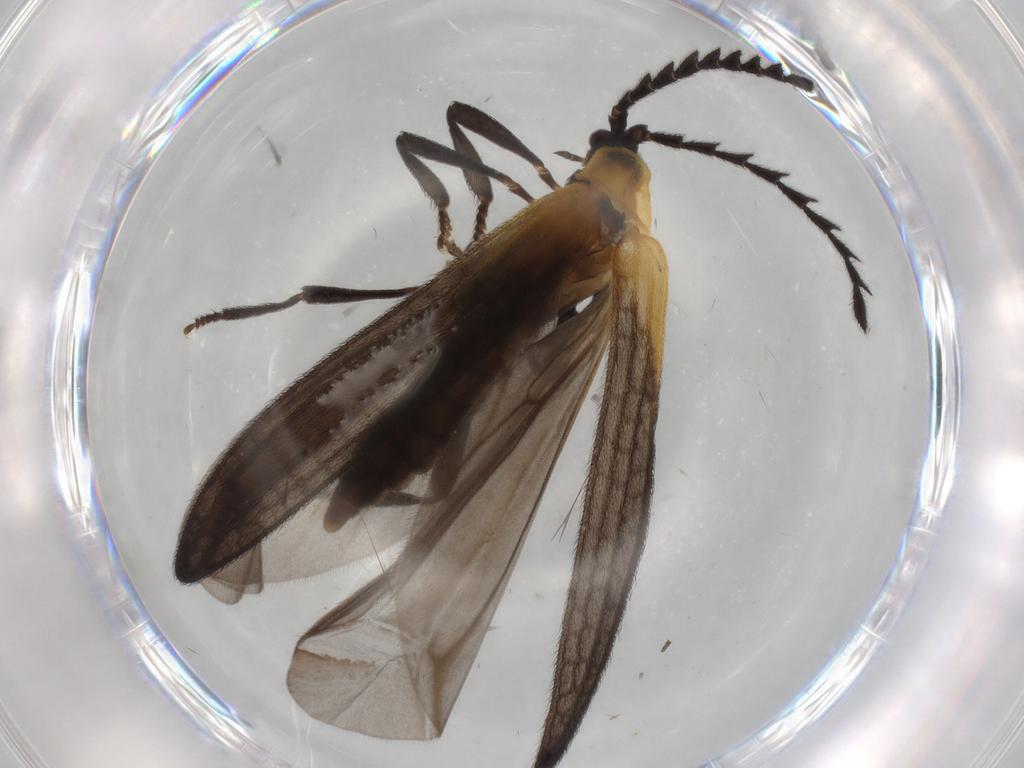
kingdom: Animalia
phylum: Arthropoda
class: Insecta
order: Coleoptera
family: Lycidae
